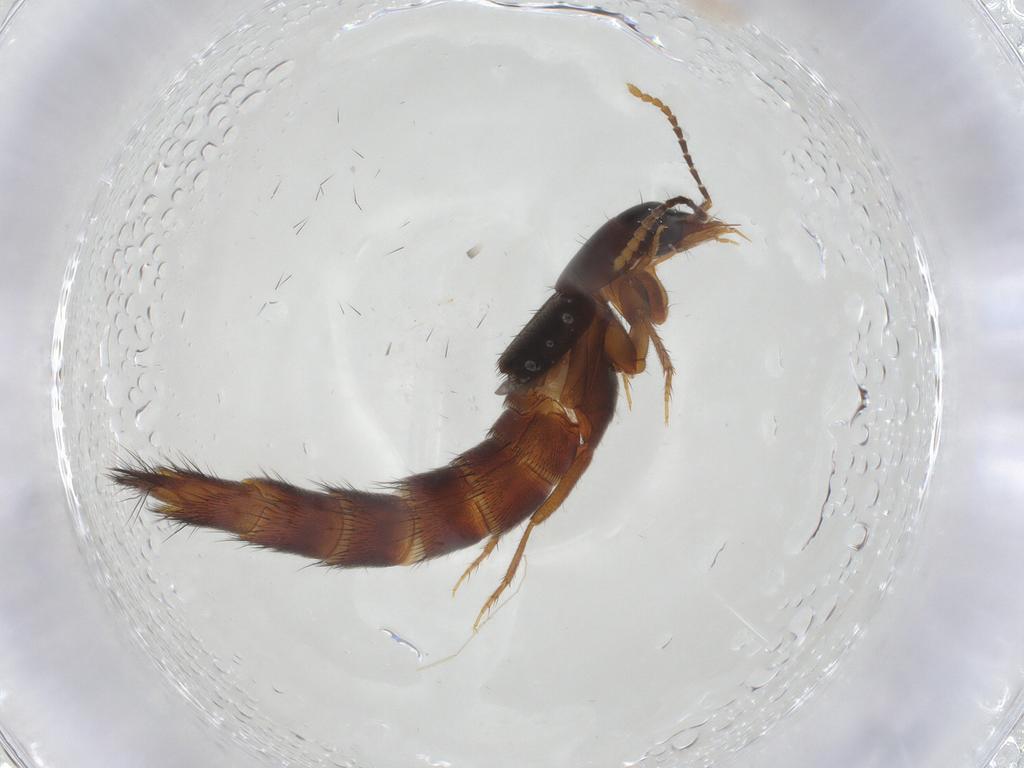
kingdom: Animalia
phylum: Arthropoda
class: Insecta
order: Coleoptera
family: Staphylinidae
